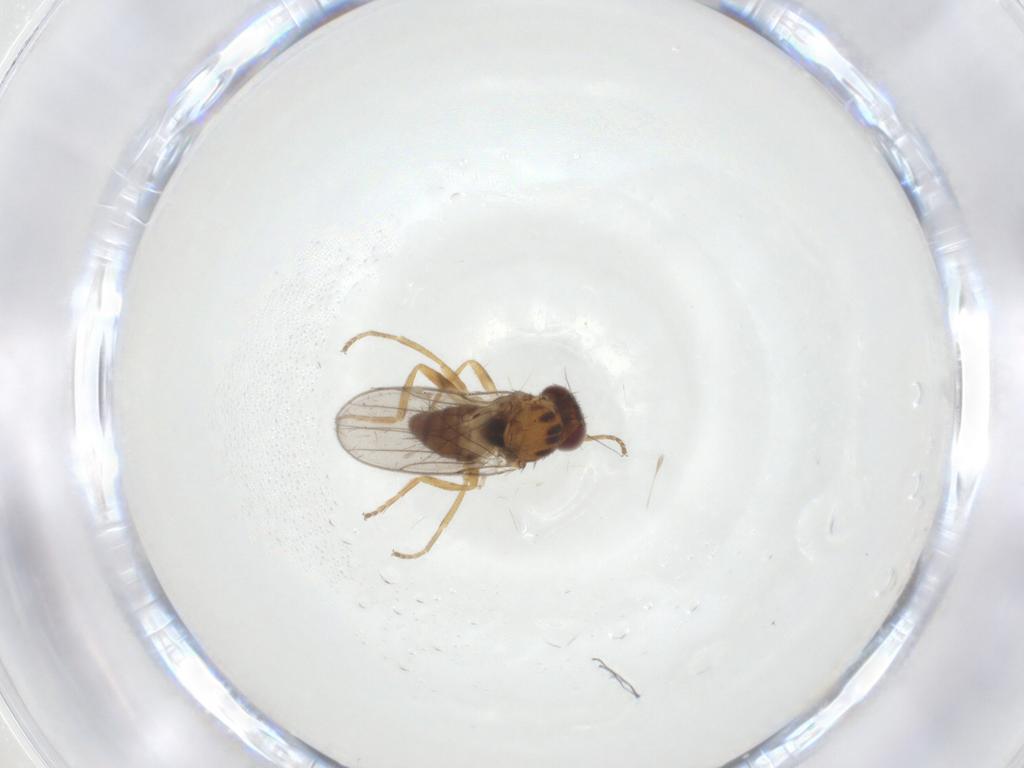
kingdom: Animalia
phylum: Arthropoda
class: Insecta
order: Diptera
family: Chloropidae
